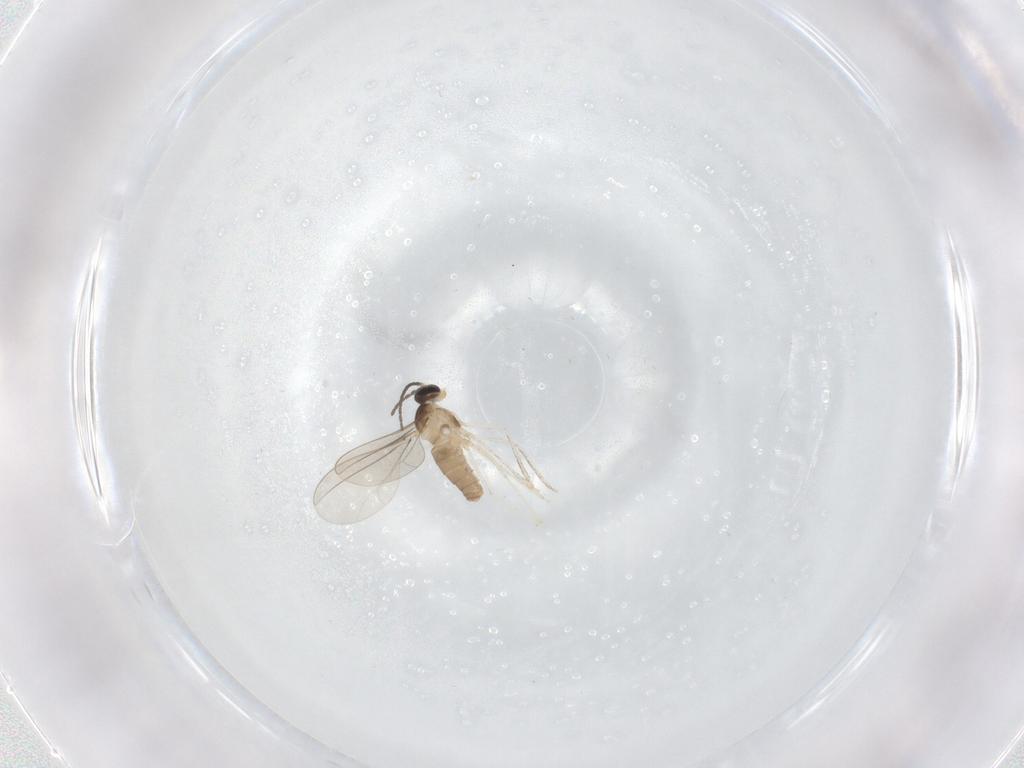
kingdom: Animalia
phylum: Arthropoda
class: Insecta
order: Diptera
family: Cecidomyiidae
